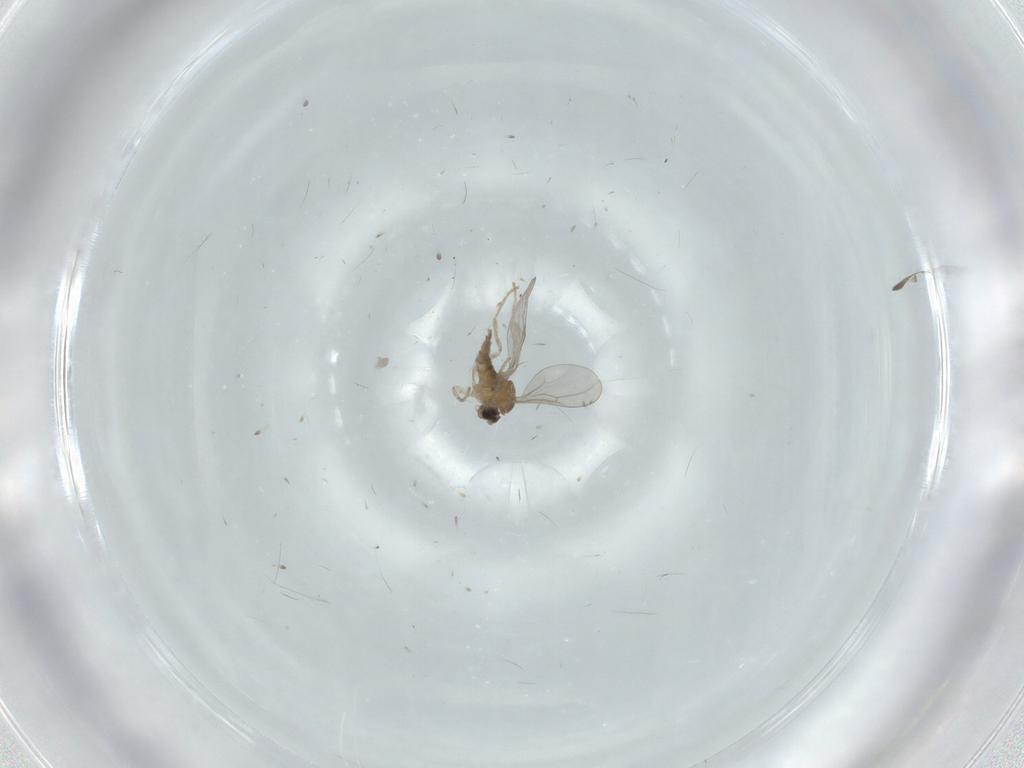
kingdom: Animalia
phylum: Arthropoda
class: Insecta
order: Diptera
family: Cecidomyiidae
